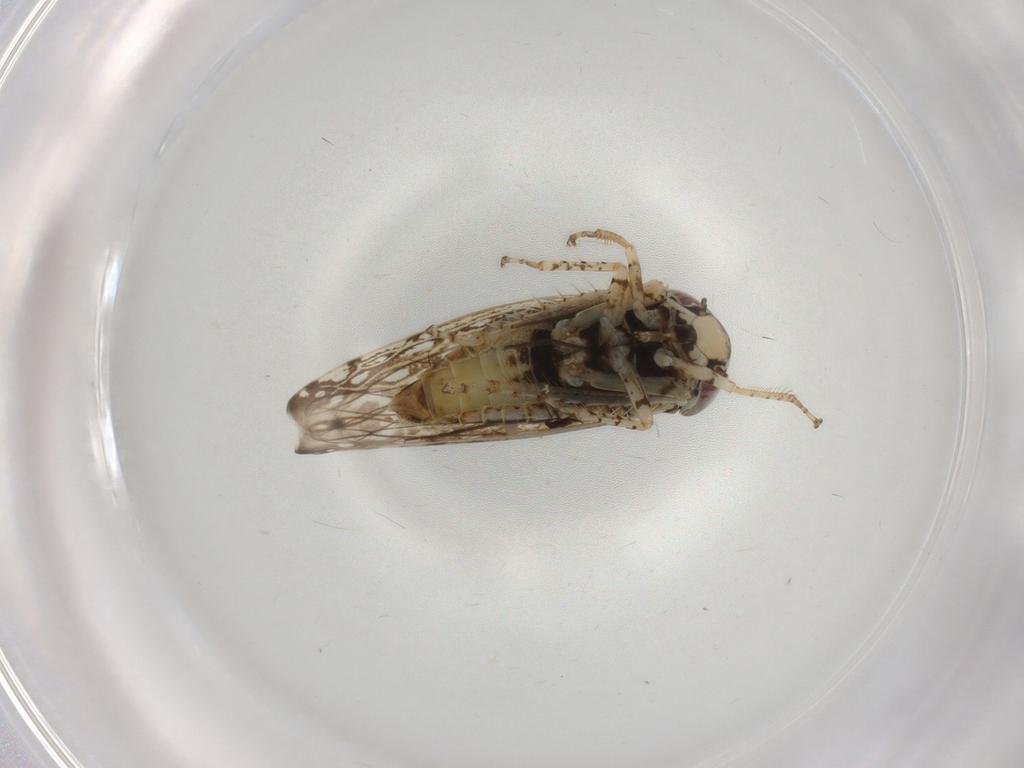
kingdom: Animalia
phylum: Arthropoda
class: Insecta
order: Hemiptera
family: Cicadellidae
